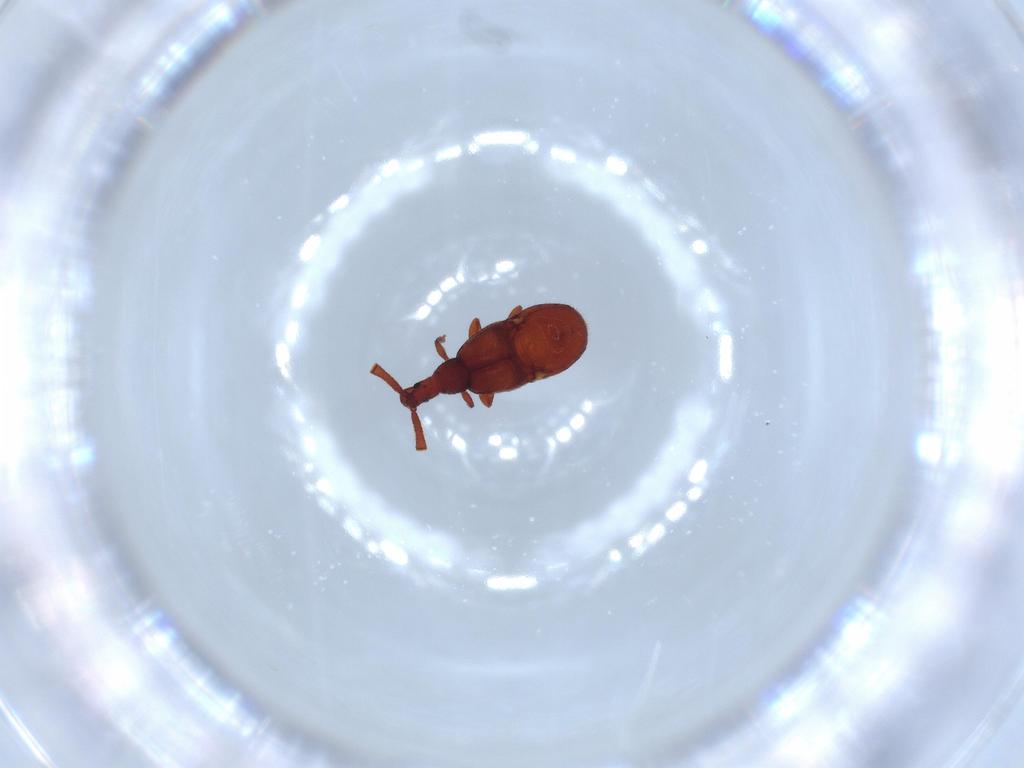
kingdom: Animalia
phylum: Arthropoda
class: Insecta
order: Coleoptera
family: Staphylinidae
